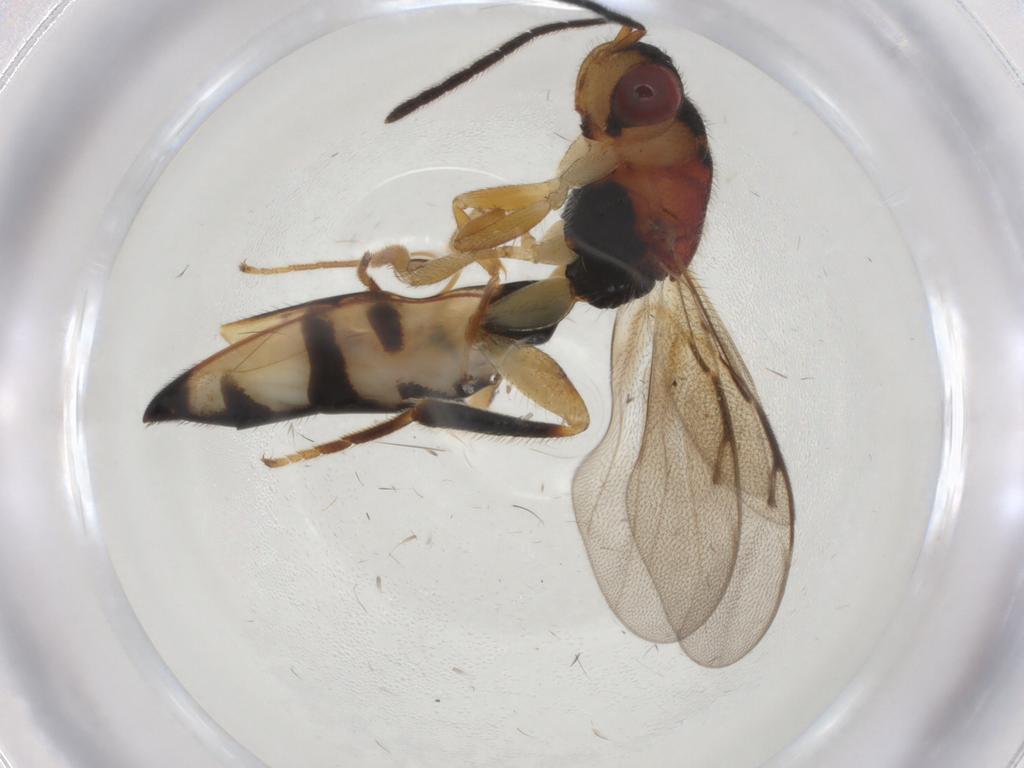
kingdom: Animalia
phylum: Arthropoda
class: Insecta
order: Hymenoptera
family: Eurytomidae
